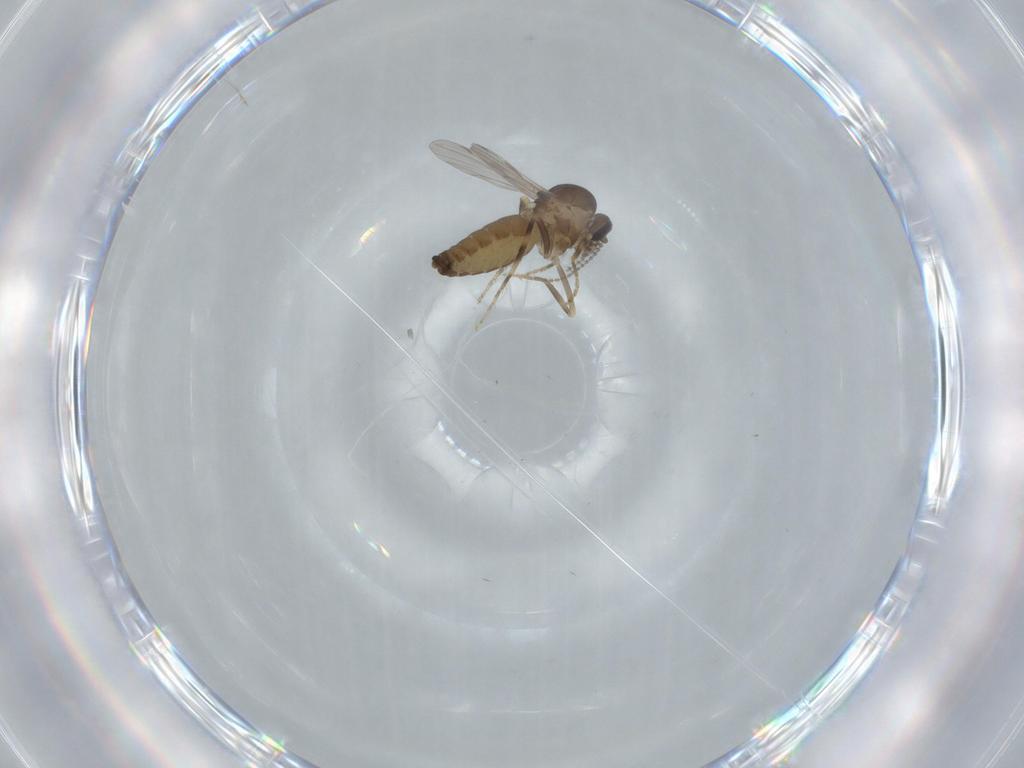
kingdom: Animalia
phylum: Arthropoda
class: Insecta
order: Diptera
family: Ceratopogonidae
